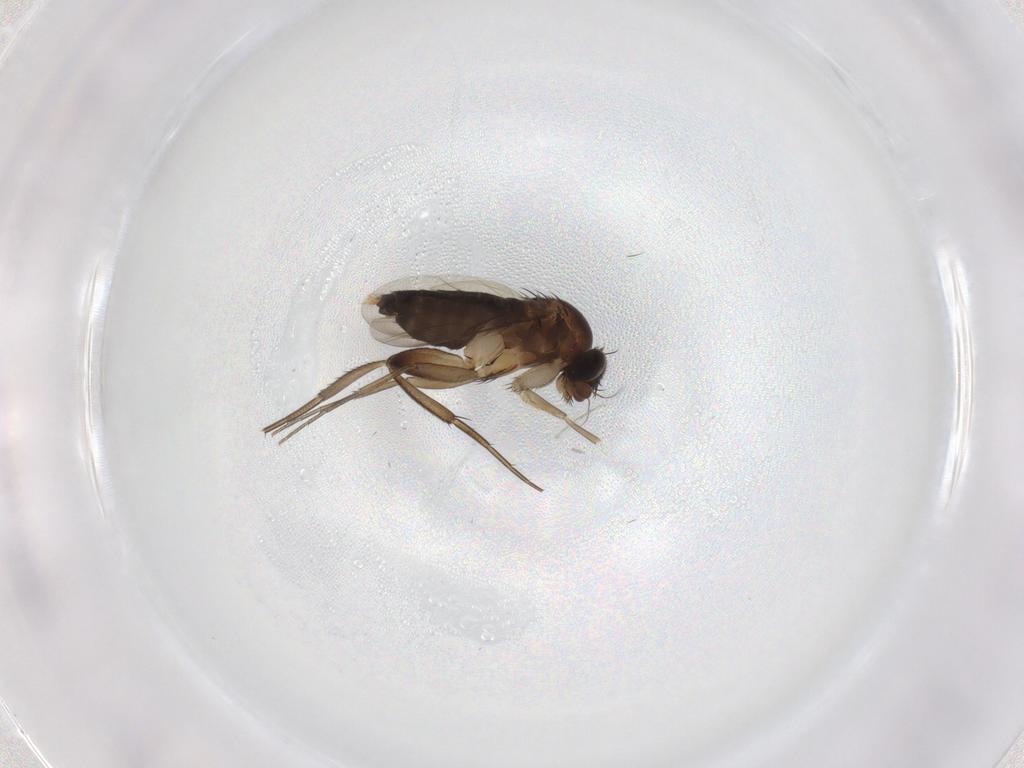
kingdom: Animalia
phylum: Arthropoda
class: Insecta
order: Diptera
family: Phoridae
